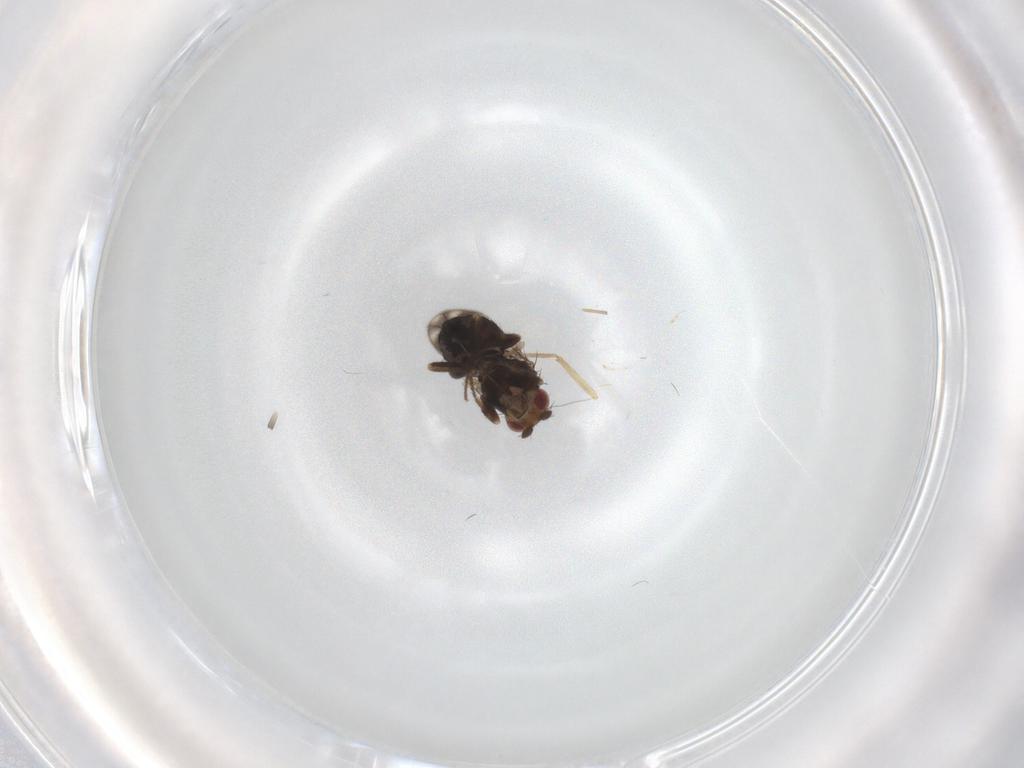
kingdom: Animalia
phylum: Arthropoda
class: Insecta
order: Diptera
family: Sphaeroceridae
